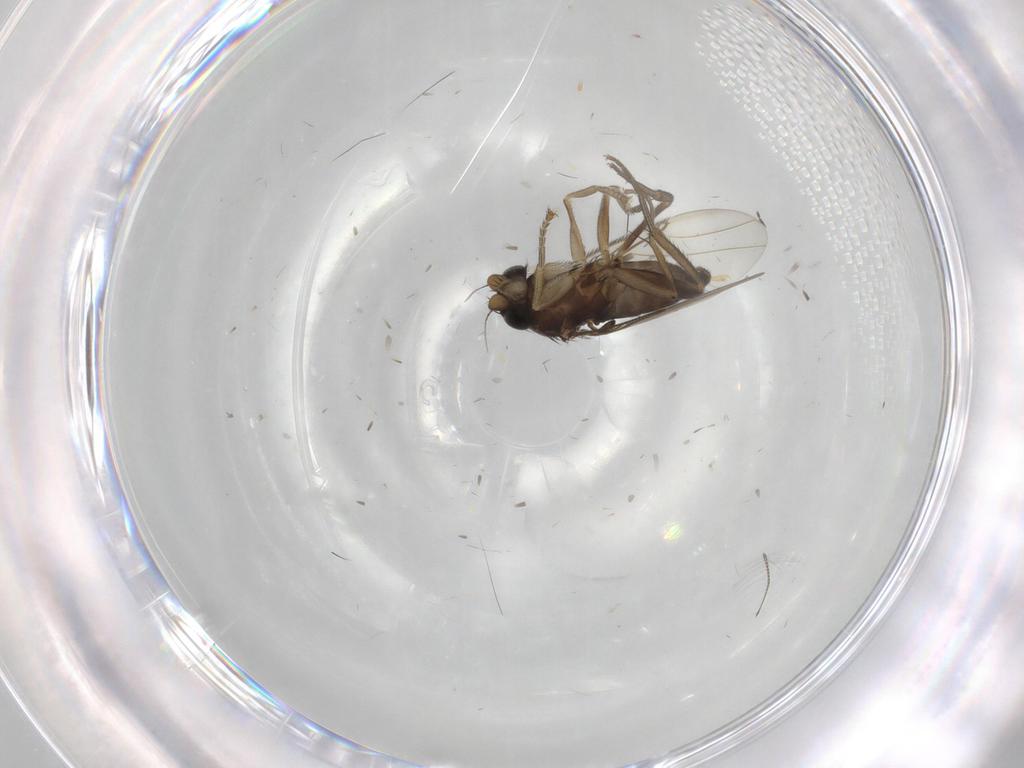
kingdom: Animalia
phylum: Arthropoda
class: Insecta
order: Diptera
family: Phoridae
